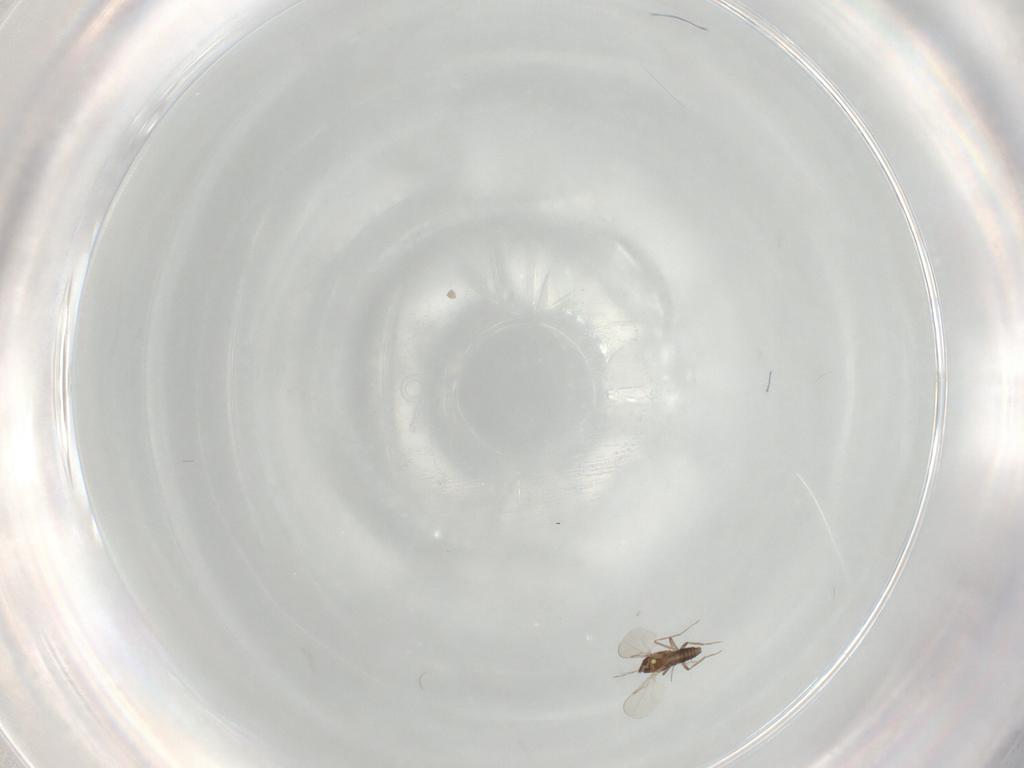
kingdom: Animalia
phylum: Arthropoda
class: Insecta
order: Diptera
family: Ceratopogonidae
